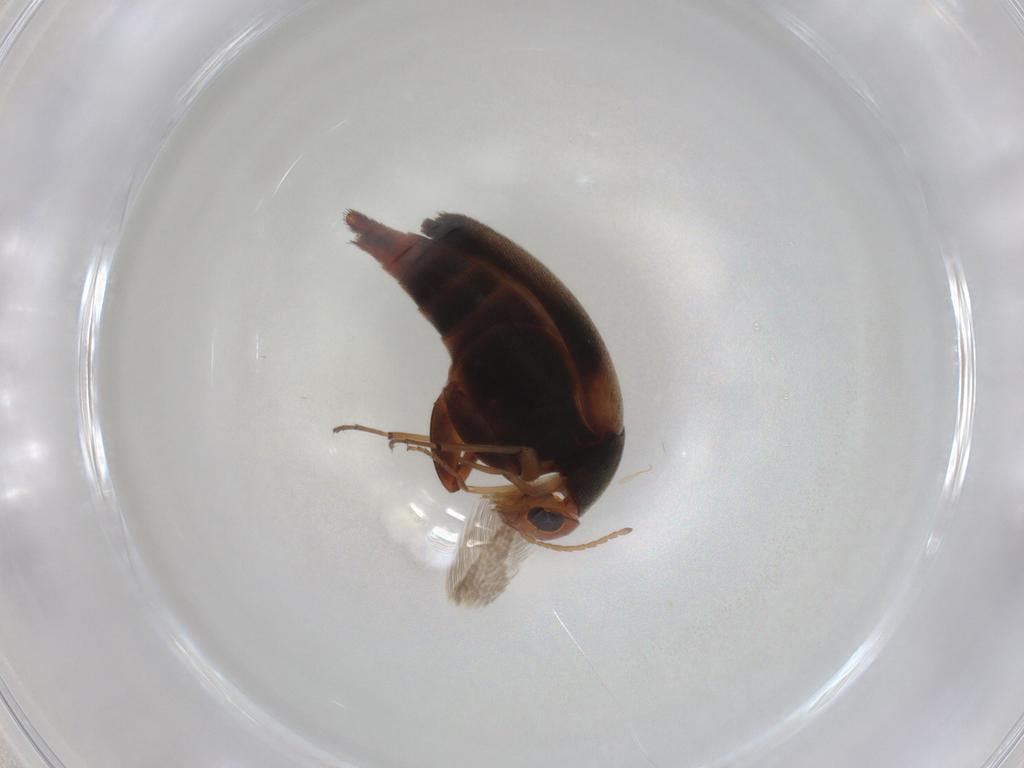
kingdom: Animalia
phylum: Arthropoda
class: Insecta
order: Coleoptera
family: Mordellidae
